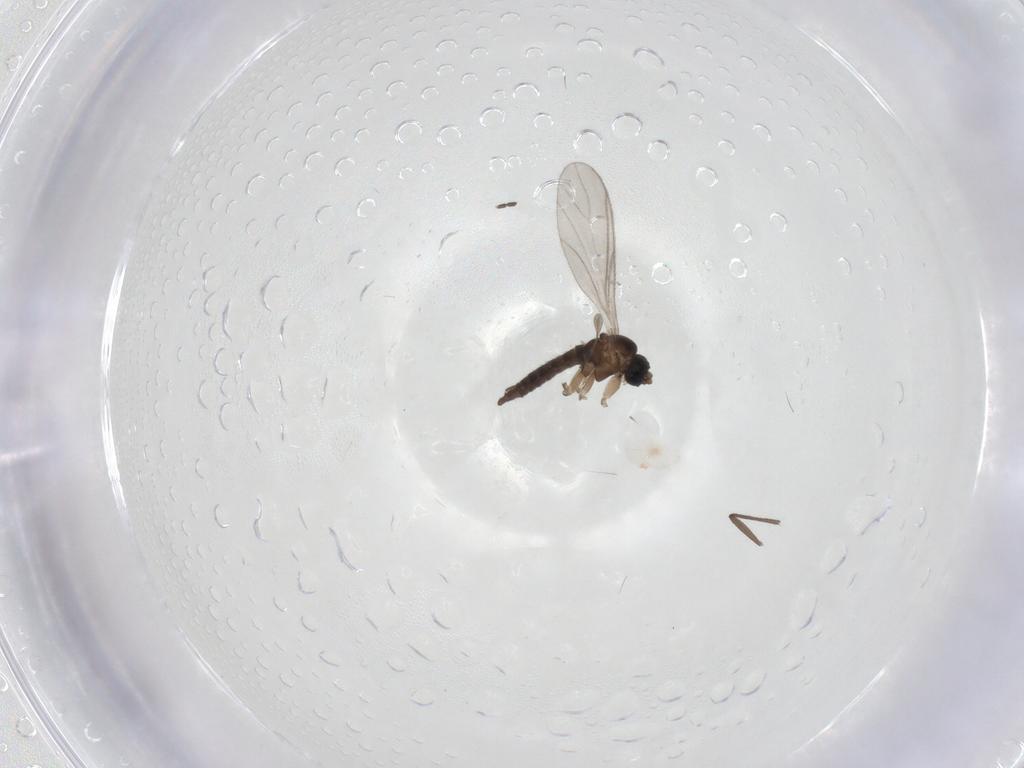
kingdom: Animalia
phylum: Arthropoda
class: Insecta
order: Diptera
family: Sciaridae
